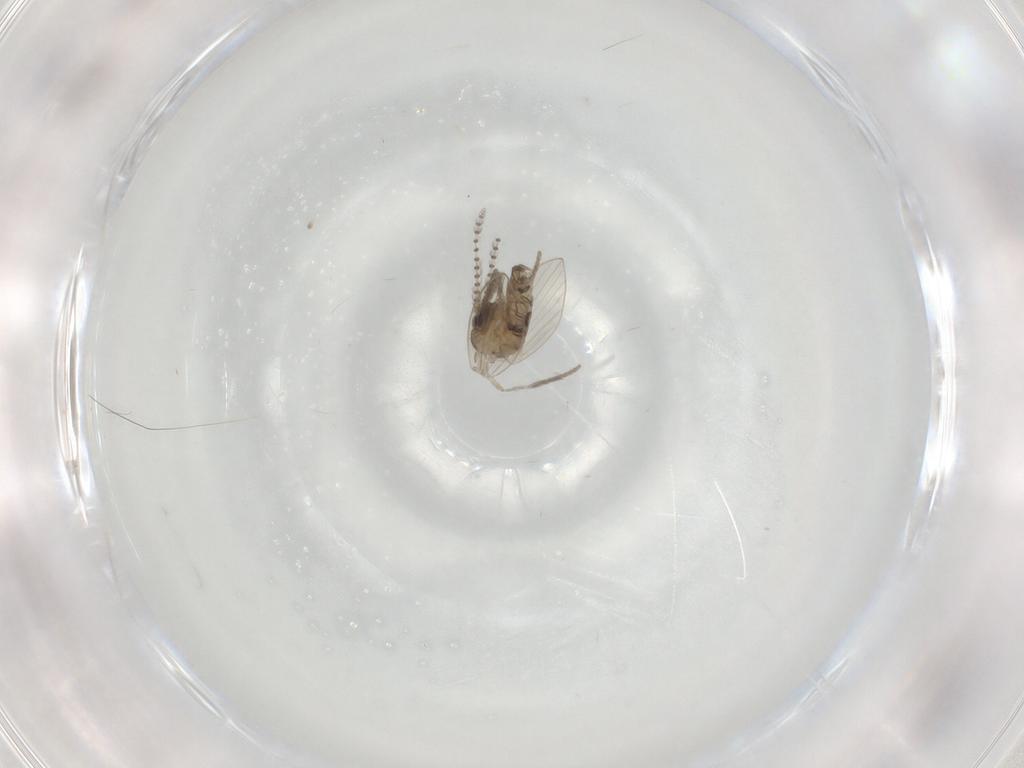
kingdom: Animalia
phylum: Arthropoda
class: Insecta
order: Diptera
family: Psychodidae
